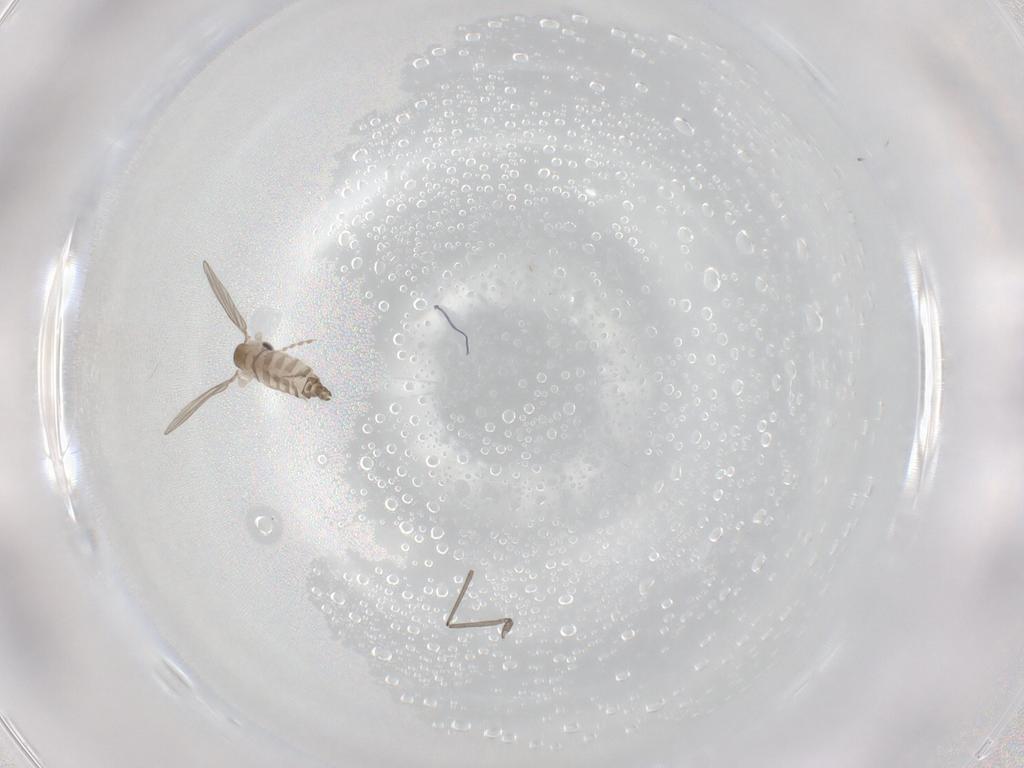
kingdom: Animalia
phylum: Arthropoda
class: Insecta
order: Diptera
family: Cecidomyiidae
